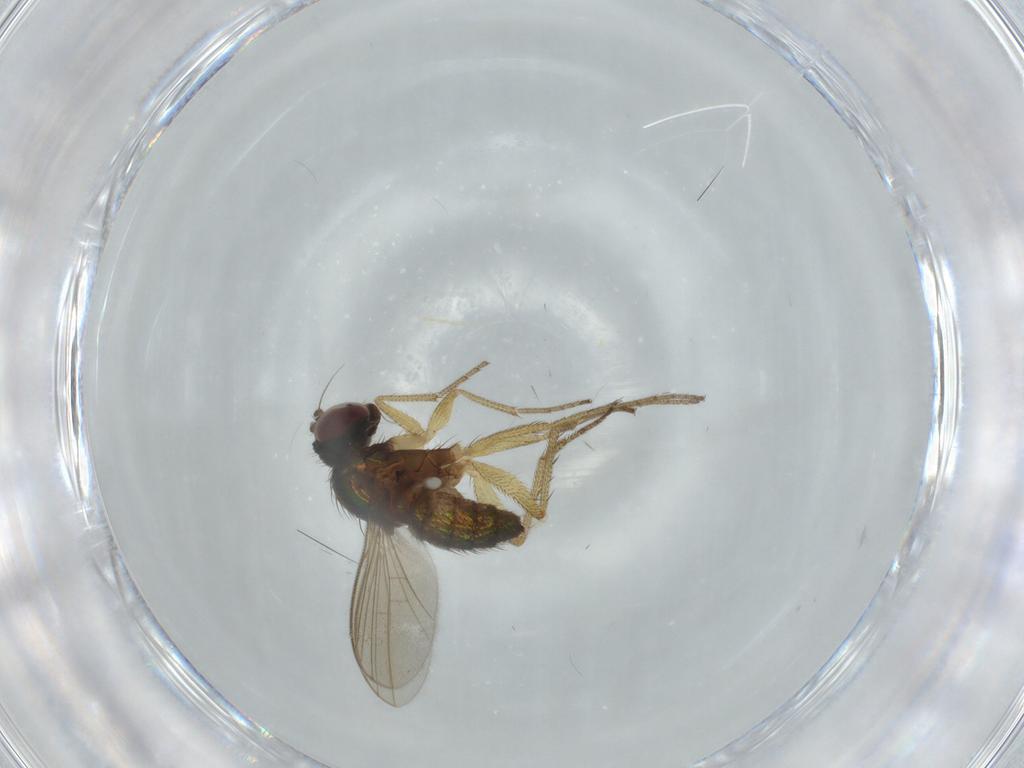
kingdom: Animalia
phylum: Arthropoda
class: Insecta
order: Diptera
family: Dolichopodidae
